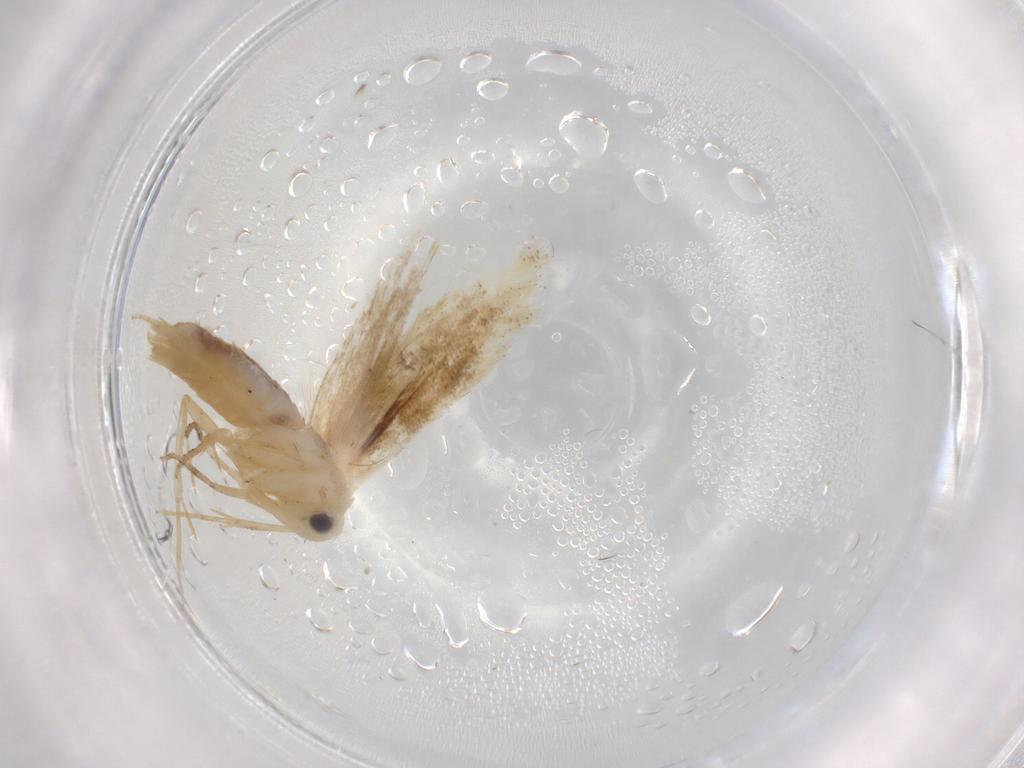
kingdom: Animalia
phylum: Arthropoda
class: Insecta
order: Lepidoptera
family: Bucculatricidae
